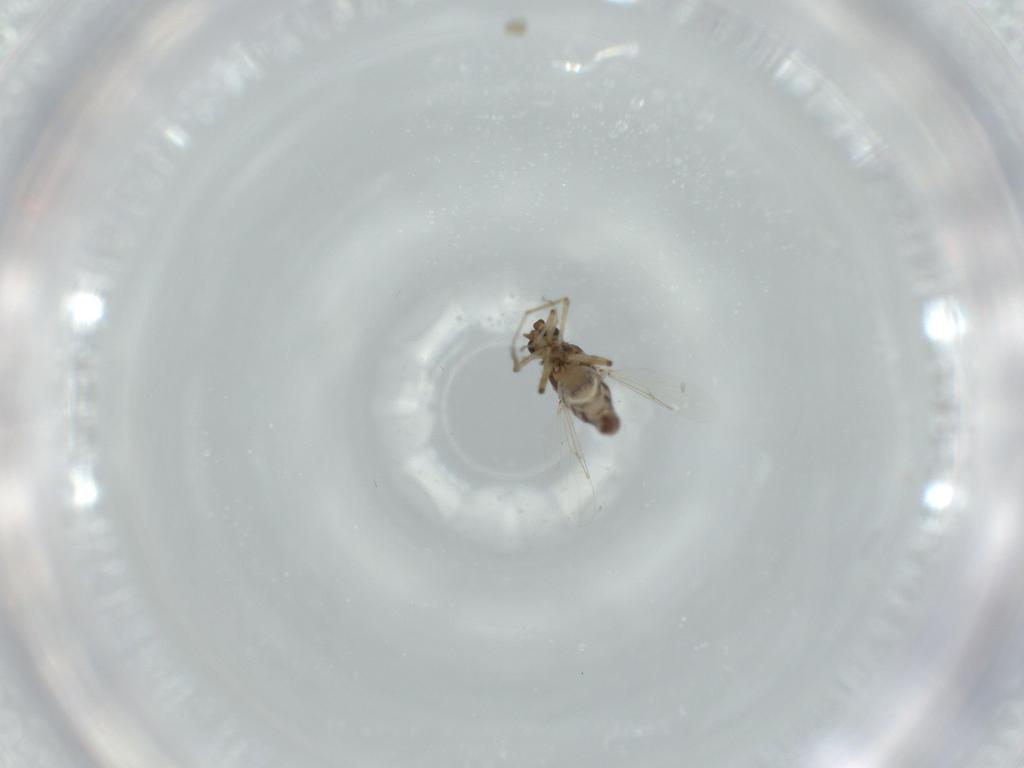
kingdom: Animalia
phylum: Arthropoda
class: Insecta
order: Diptera
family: Ceratopogonidae
